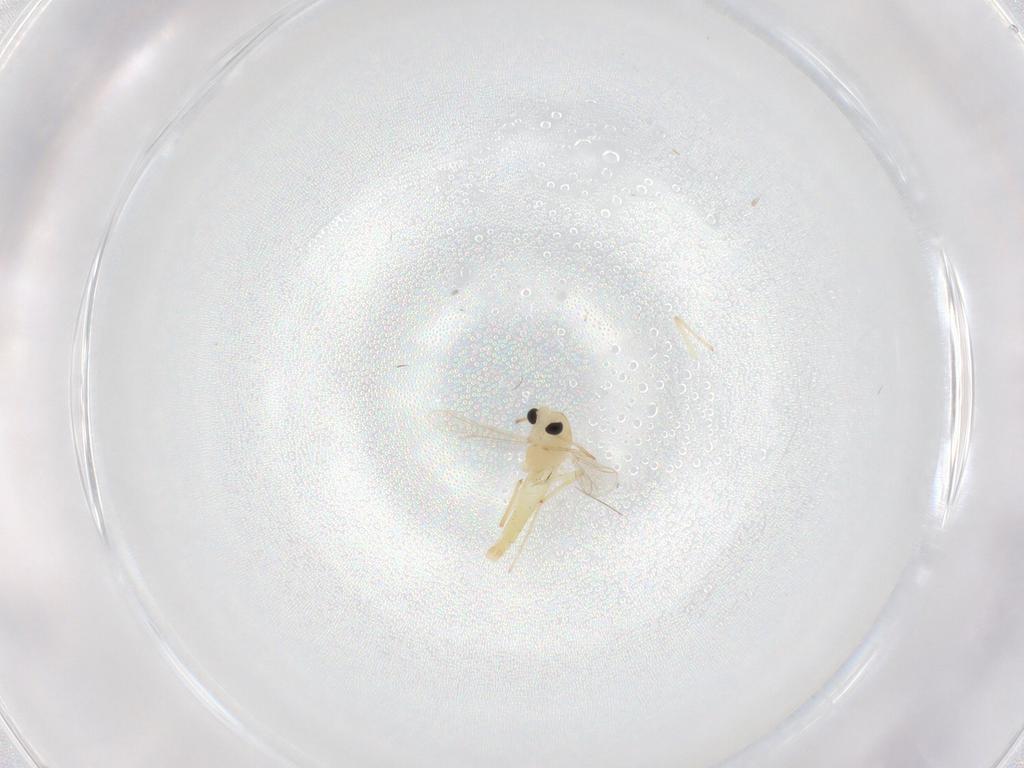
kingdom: Animalia
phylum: Arthropoda
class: Insecta
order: Diptera
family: Chironomidae
